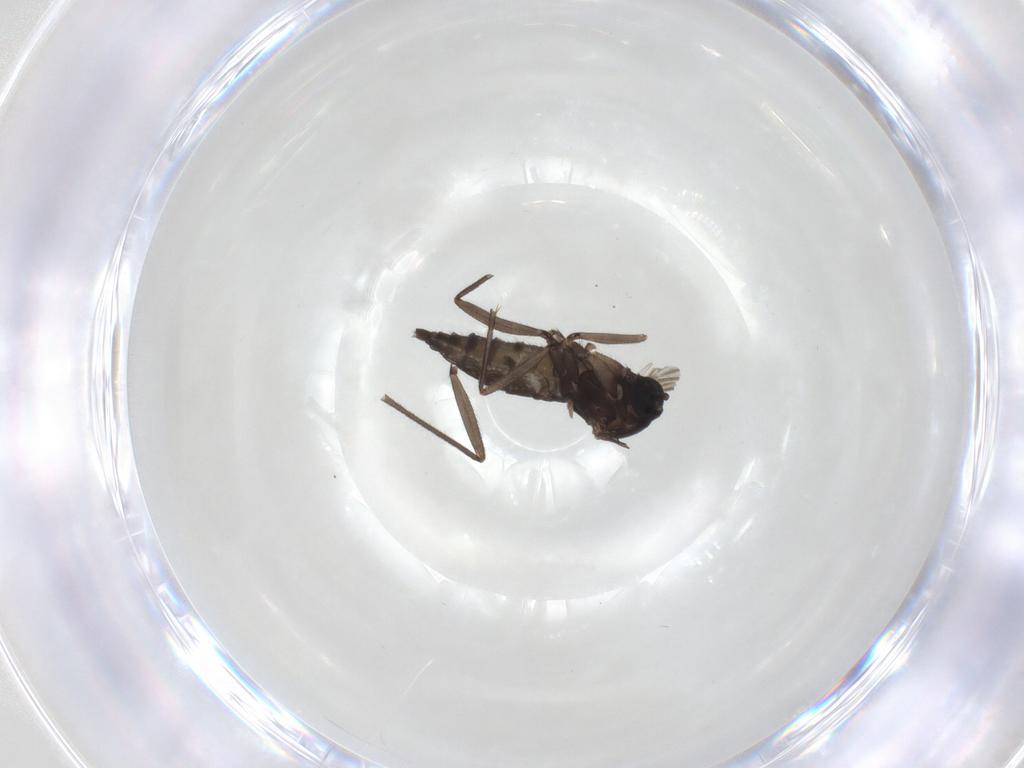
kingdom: Animalia
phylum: Arthropoda
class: Insecta
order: Diptera
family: Sciaridae
